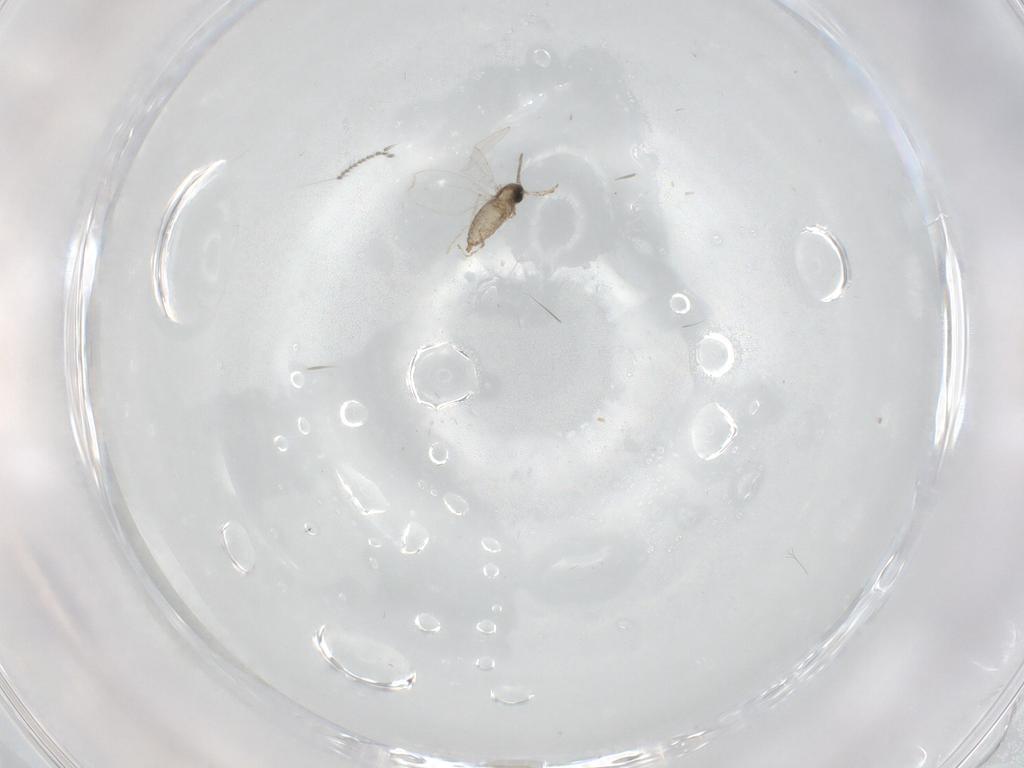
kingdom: Animalia
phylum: Arthropoda
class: Insecta
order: Diptera
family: Cecidomyiidae
